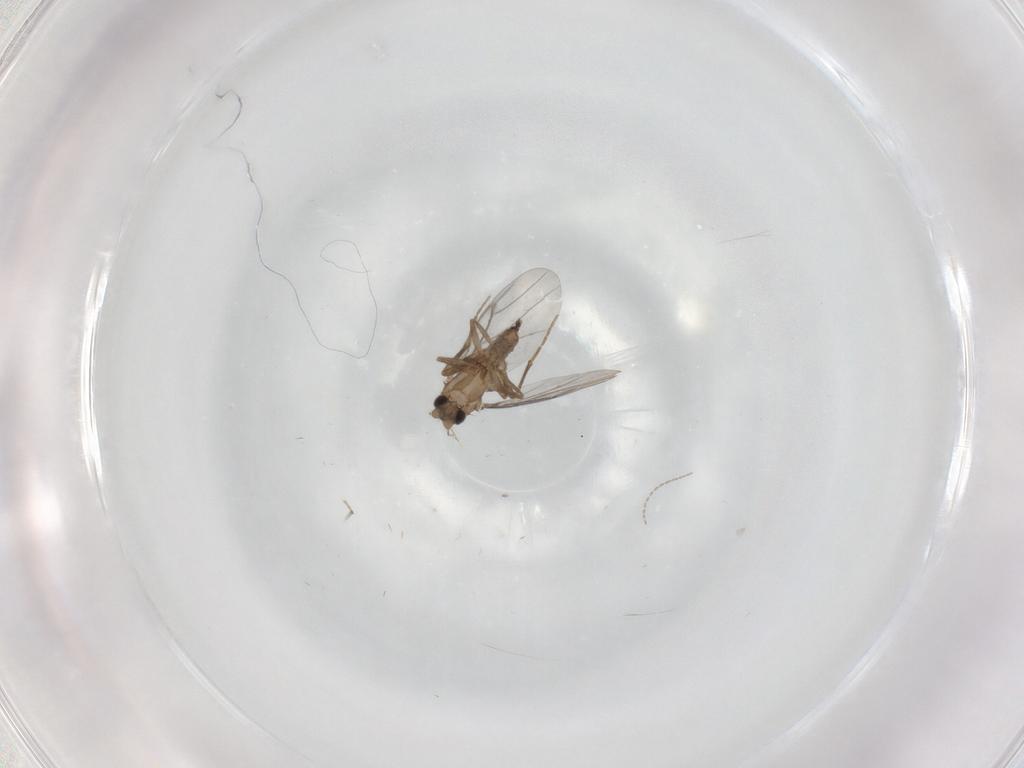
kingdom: Animalia
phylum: Arthropoda
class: Insecta
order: Diptera
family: Cecidomyiidae
